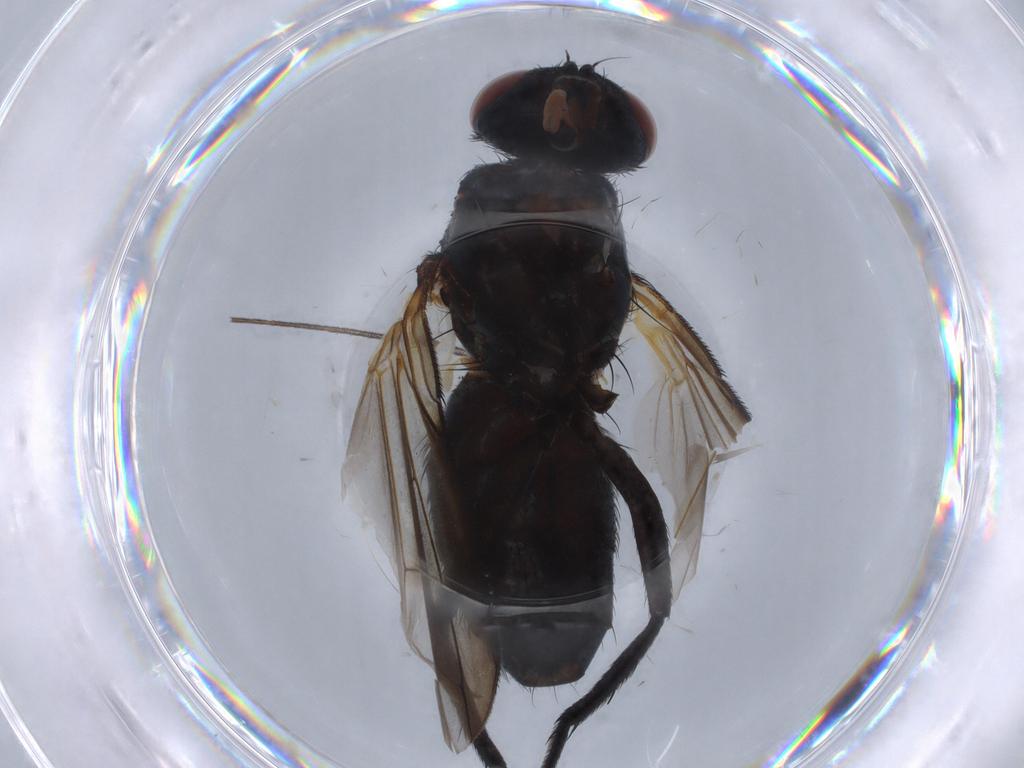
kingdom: Animalia
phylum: Arthropoda
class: Insecta
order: Diptera
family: Tachinidae
